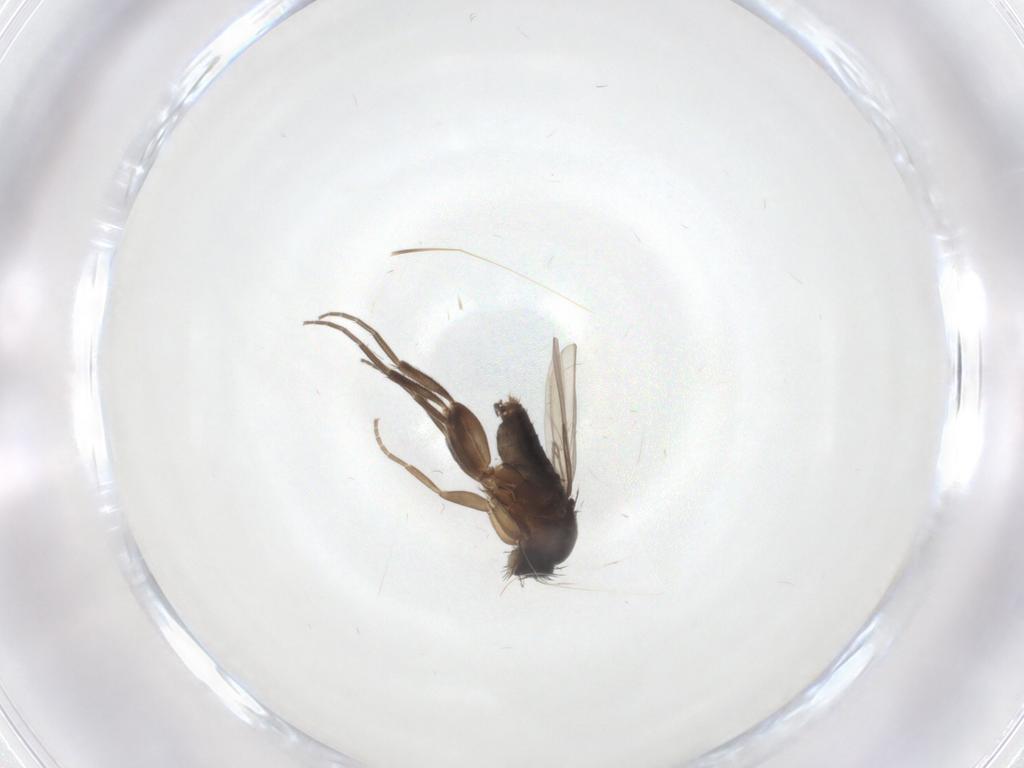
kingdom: Animalia
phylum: Arthropoda
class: Insecta
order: Diptera
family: Phoridae
